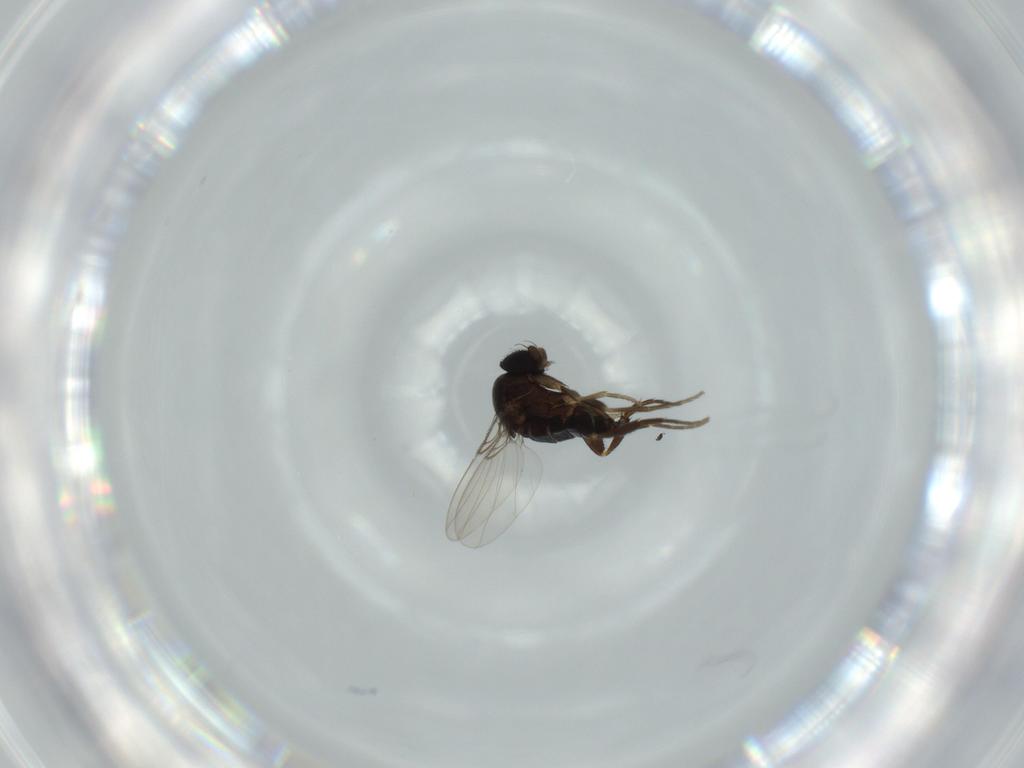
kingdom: Animalia
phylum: Arthropoda
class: Insecta
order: Diptera
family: Phoridae
